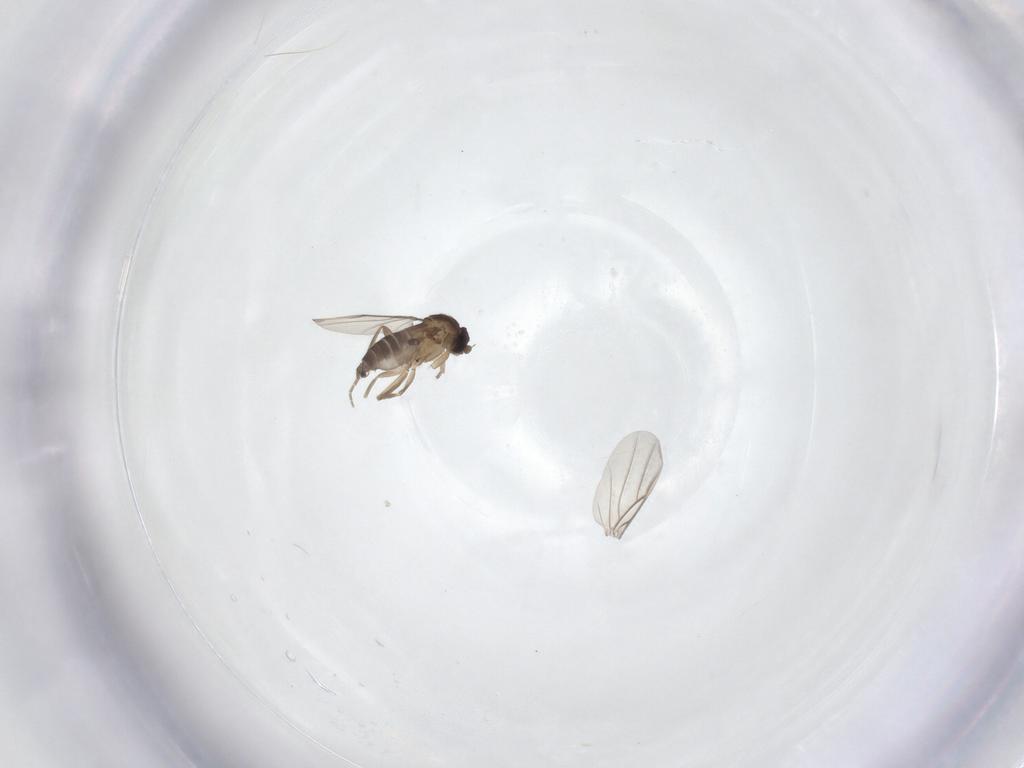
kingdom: Animalia
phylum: Arthropoda
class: Insecta
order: Diptera
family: Phoridae
